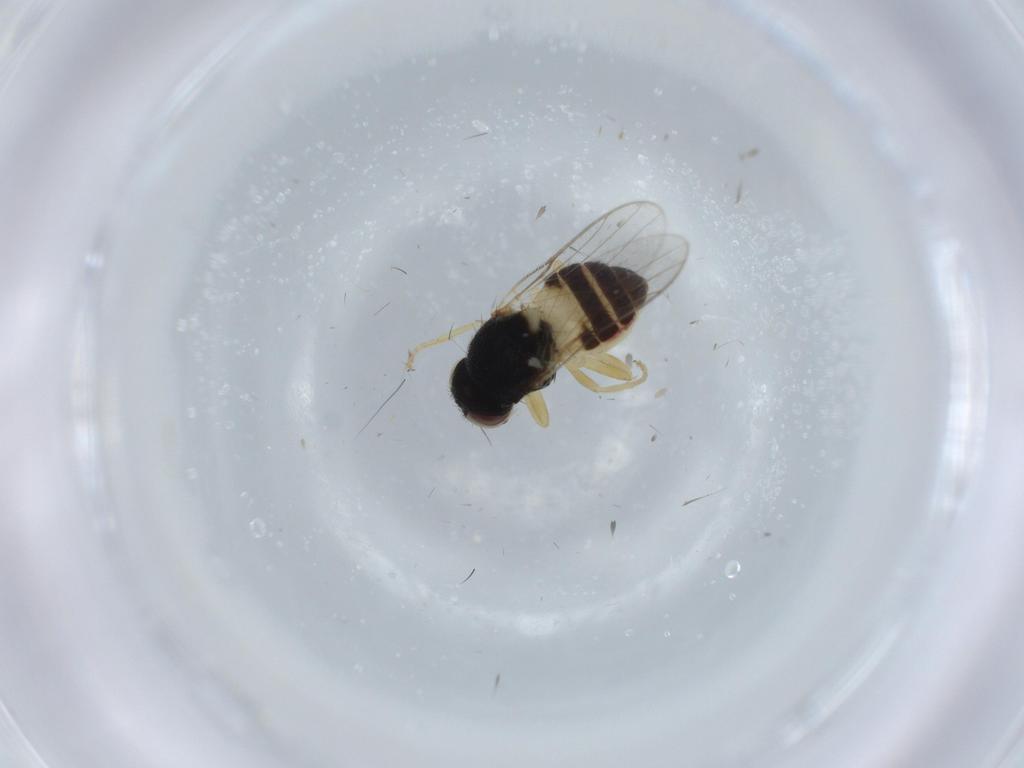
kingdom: Animalia
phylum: Arthropoda
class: Insecta
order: Diptera
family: Chloropidae
